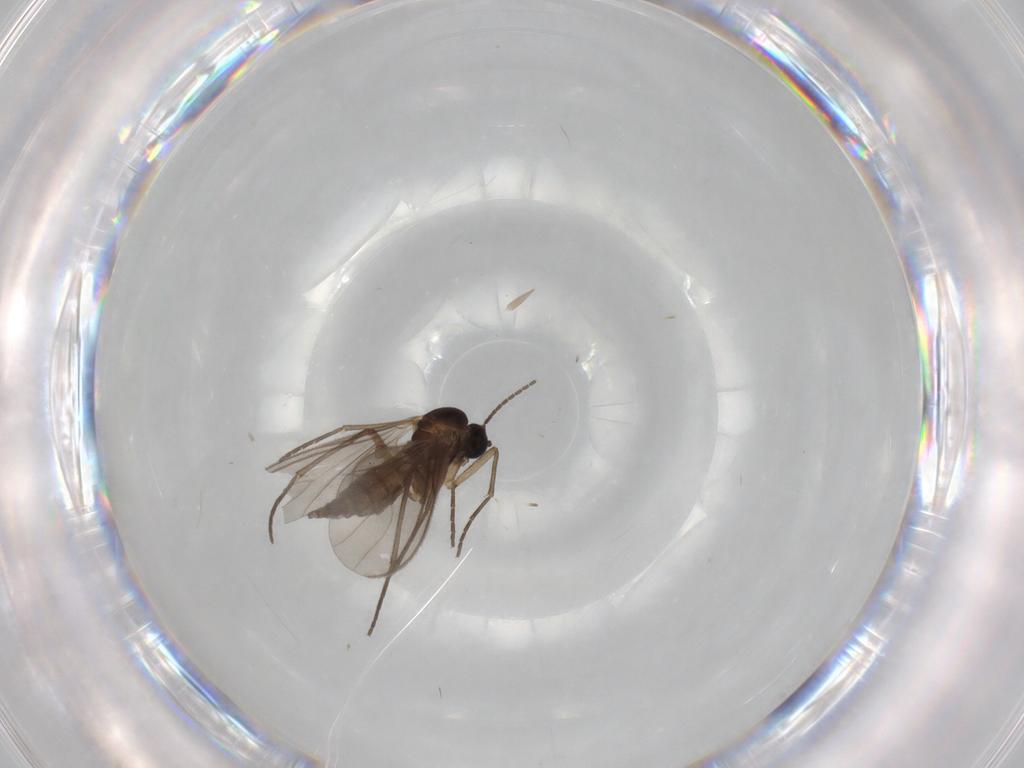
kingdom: Animalia
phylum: Arthropoda
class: Insecta
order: Diptera
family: Sciaridae
